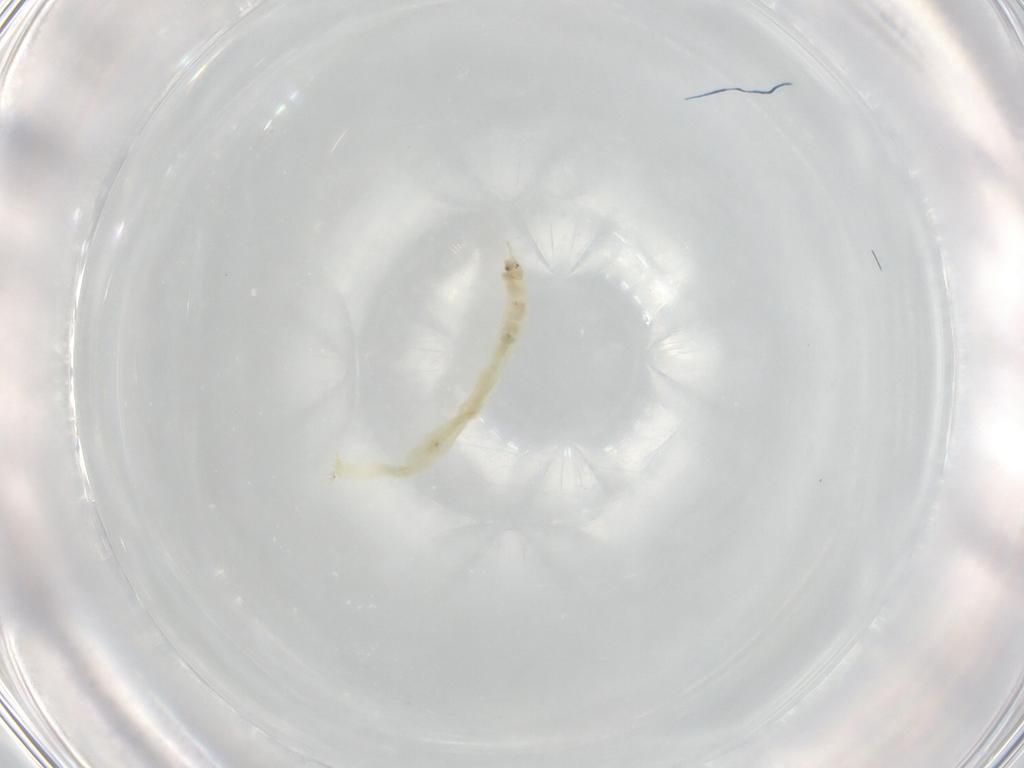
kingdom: Animalia
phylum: Arthropoda
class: Insecta
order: Diptera
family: Chironomidae
